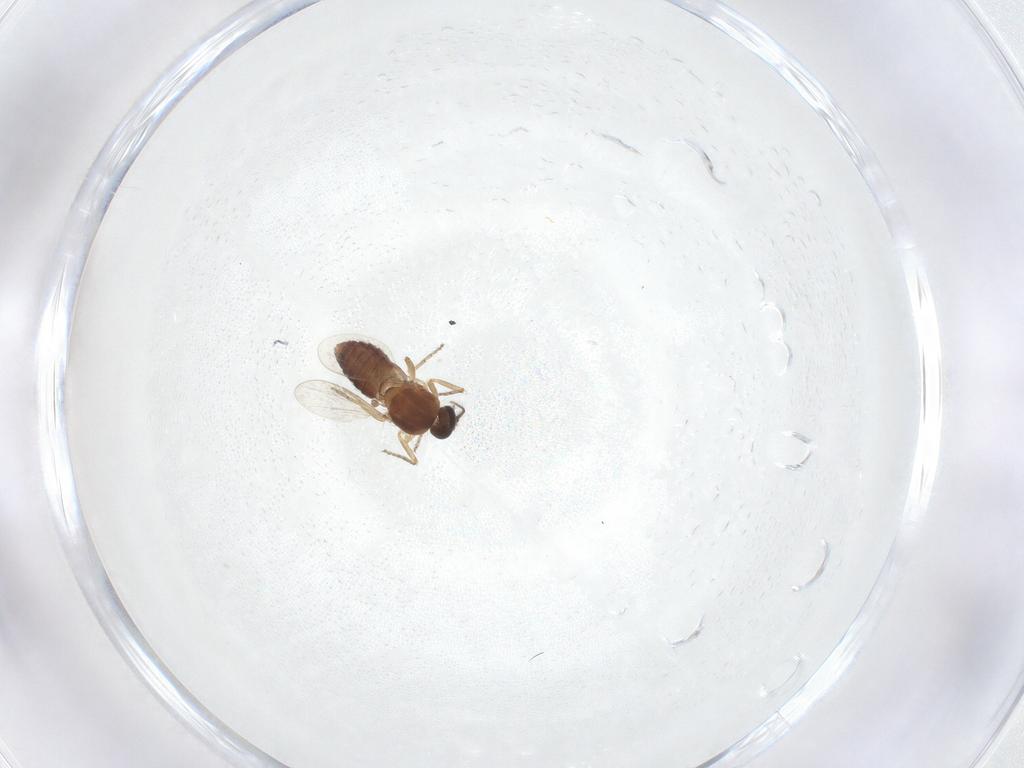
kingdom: Animalia
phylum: Arthropoda
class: Insecta
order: Diptera
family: Ceratopogonidae
